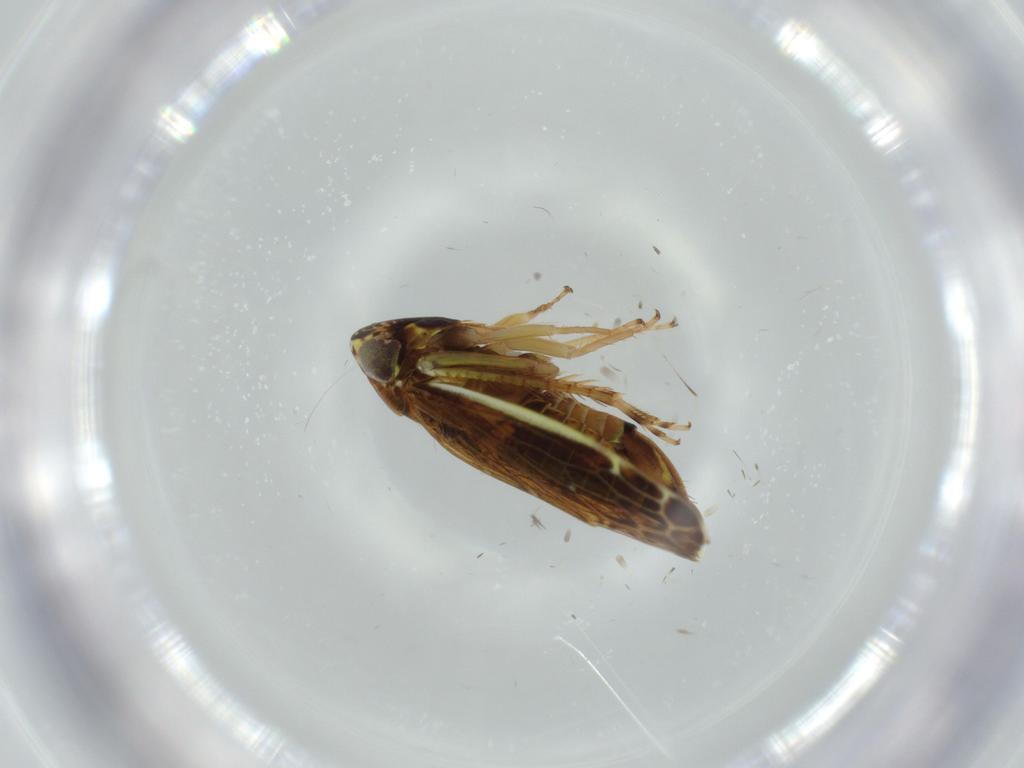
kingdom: Animalia
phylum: Arthropoda
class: Insecta
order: Hemiptera
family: Cicadellidae
